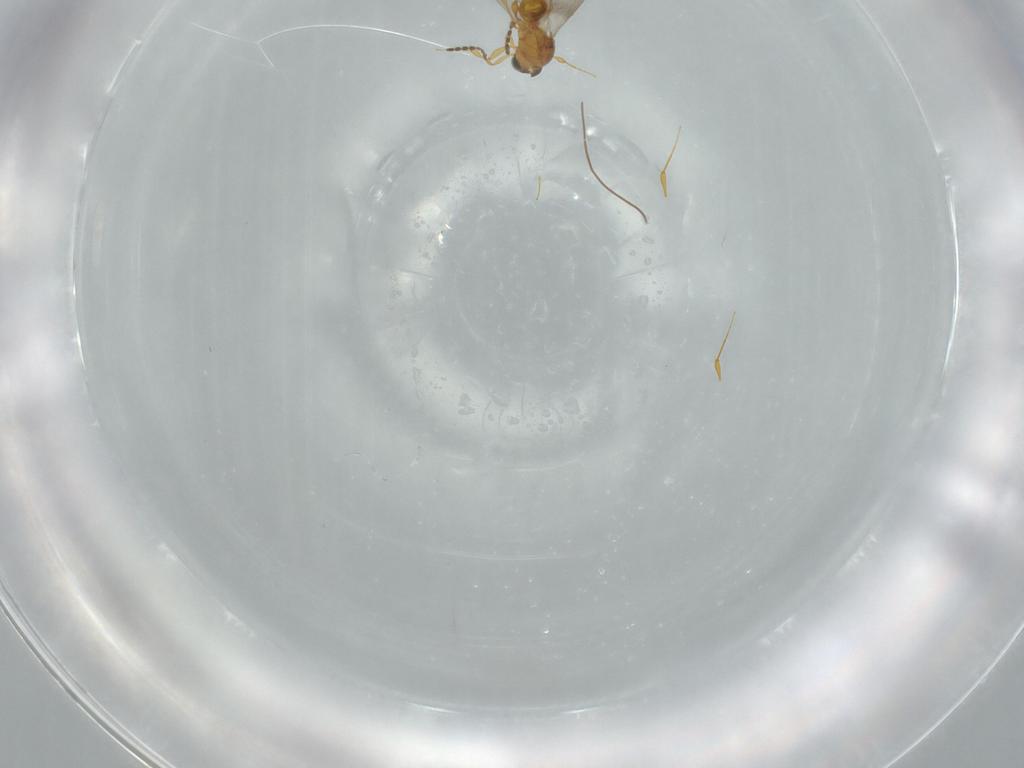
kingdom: Animalia
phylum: Arthropoda
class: Insecta
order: Hymenoptera
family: Platygastridae
